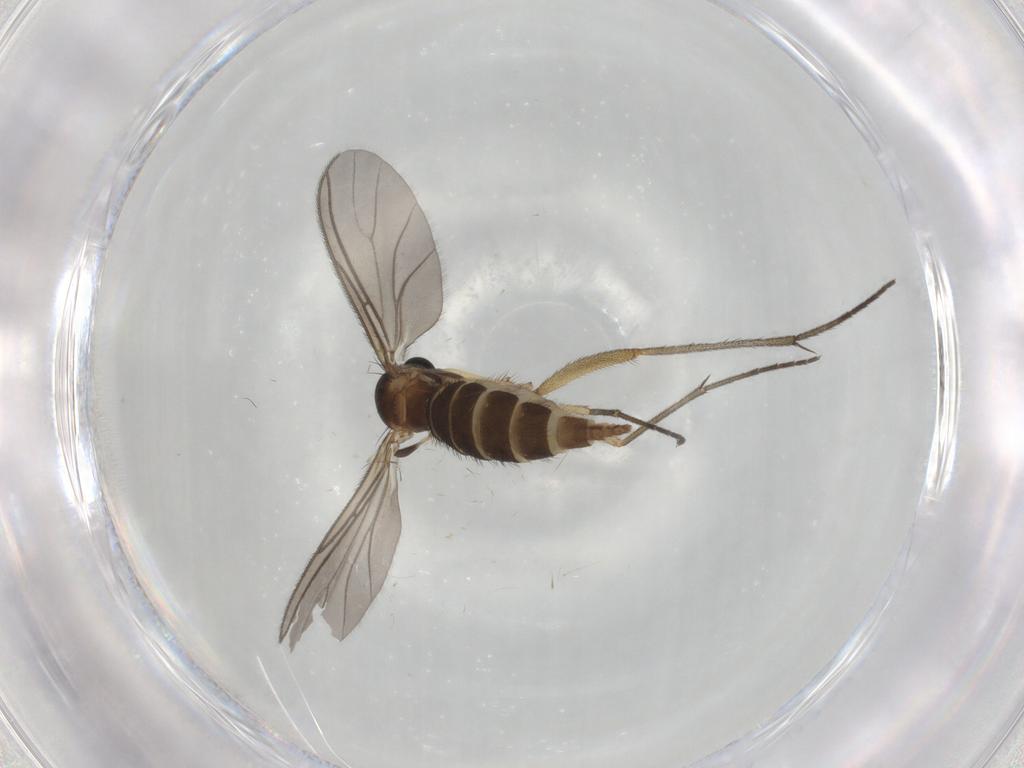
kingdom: Animalia
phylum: Arthropoda
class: Insecta
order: Diptera
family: Sciaridae
